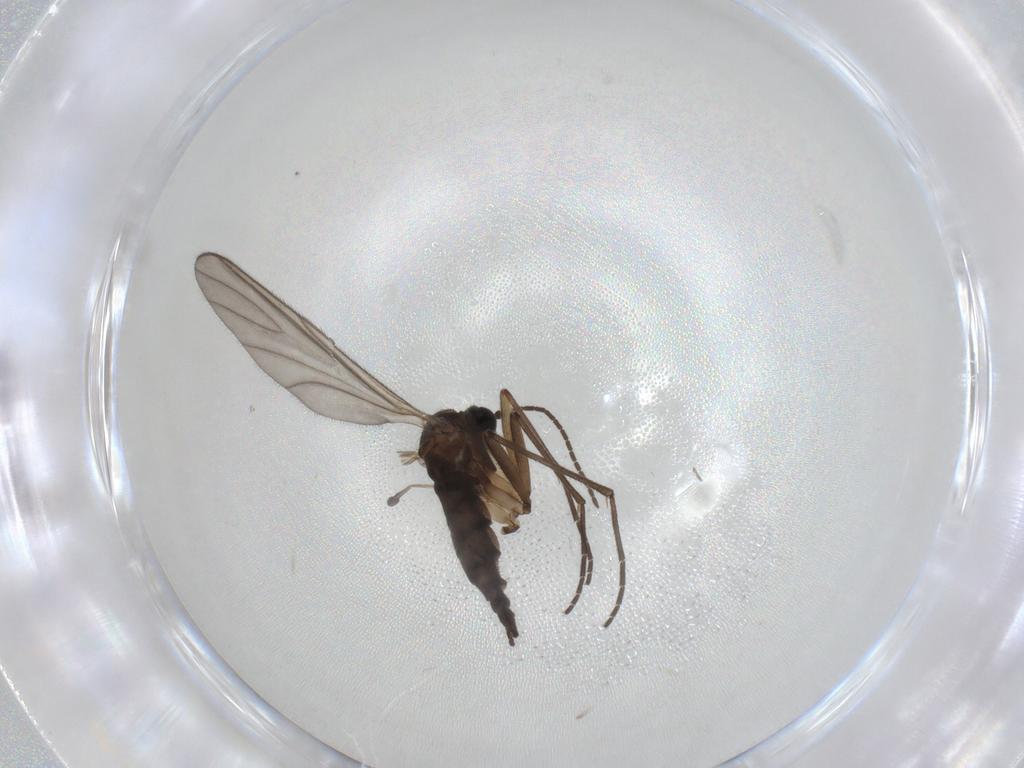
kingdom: Animalia
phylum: Arthropoda
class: Insecta
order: Diptera
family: Sciaridae
